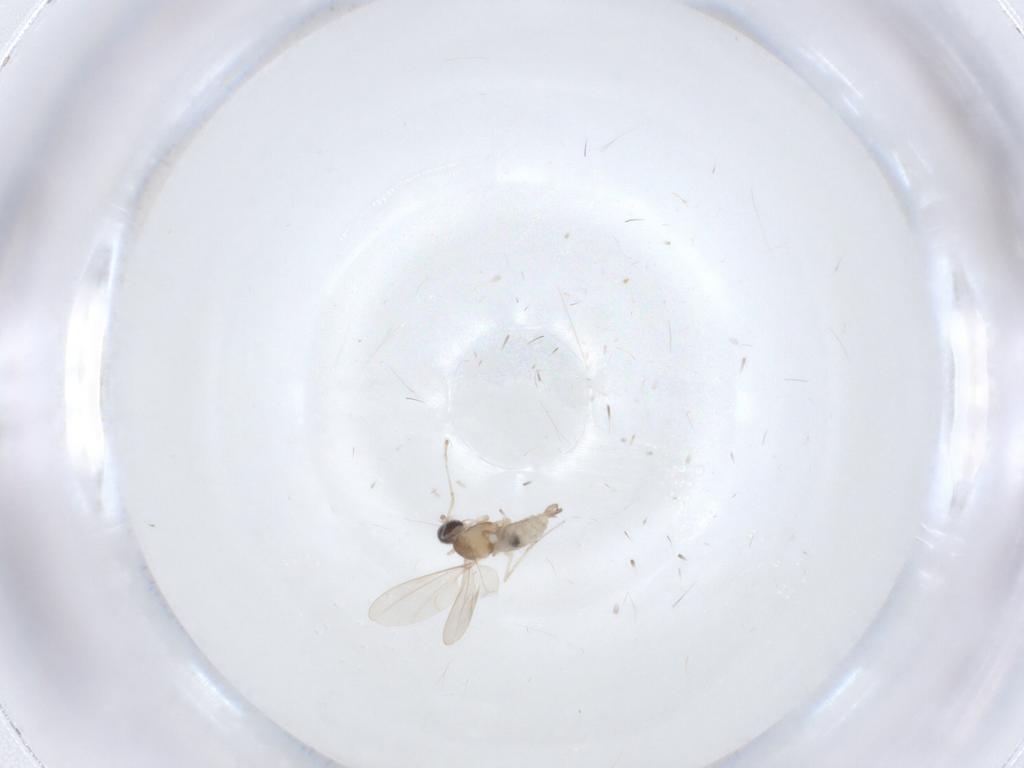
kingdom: Animalia
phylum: Arthropoda
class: Insecta
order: Diptera
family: Cecidomyiidae
